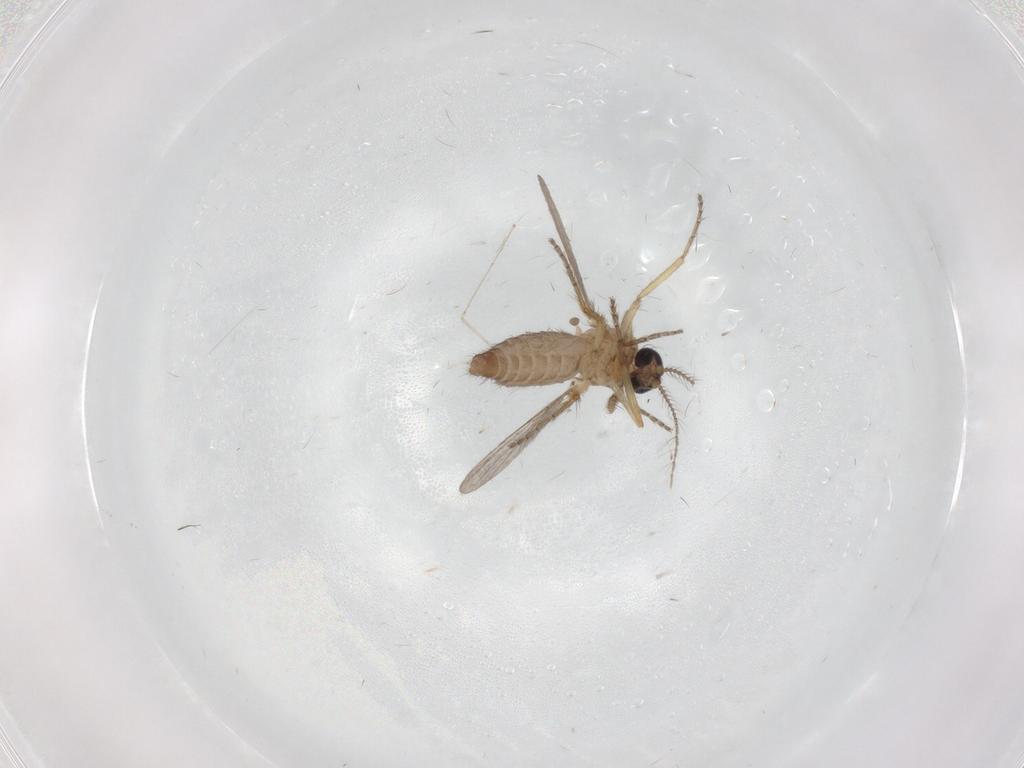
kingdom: Animalia
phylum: Arthropoda
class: Insecta
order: Diptera
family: Ceratopogonidae
